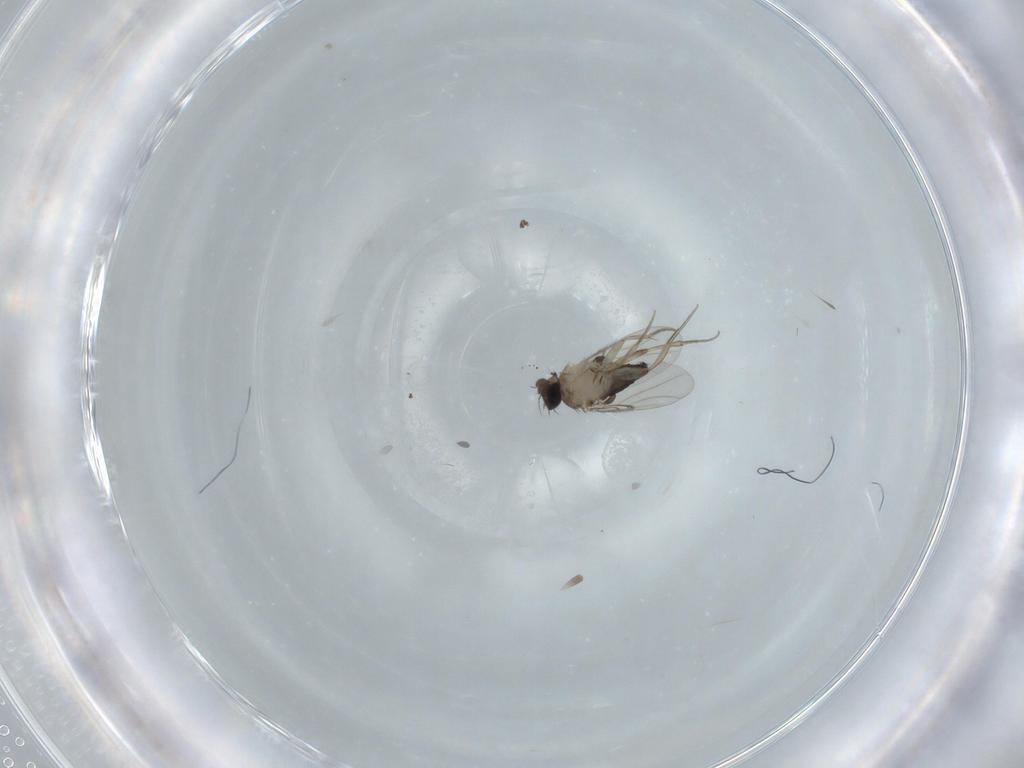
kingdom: Animalia
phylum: Arthropoda
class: Insecta
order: Diptera
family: Phoridae
